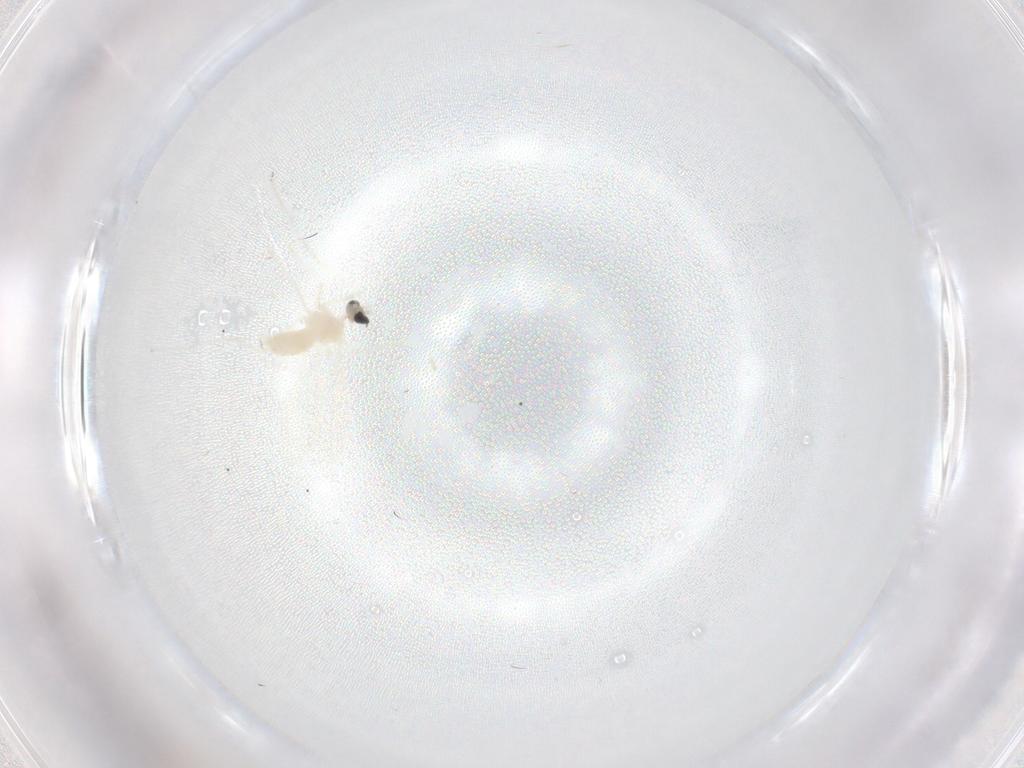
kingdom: Animalia
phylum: Arthropoda
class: Insecta
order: Diptera
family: Cecidomyiidae
